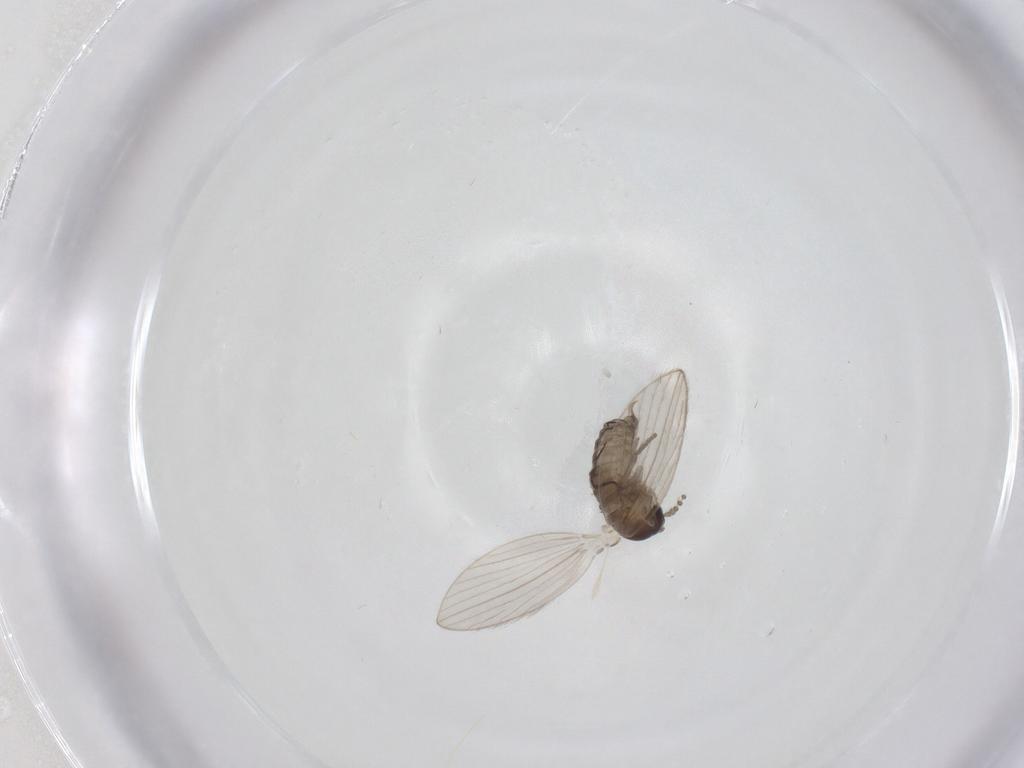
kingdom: Animalia
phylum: Arthropoda
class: Insecta
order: Diptera
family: Psychodidae
